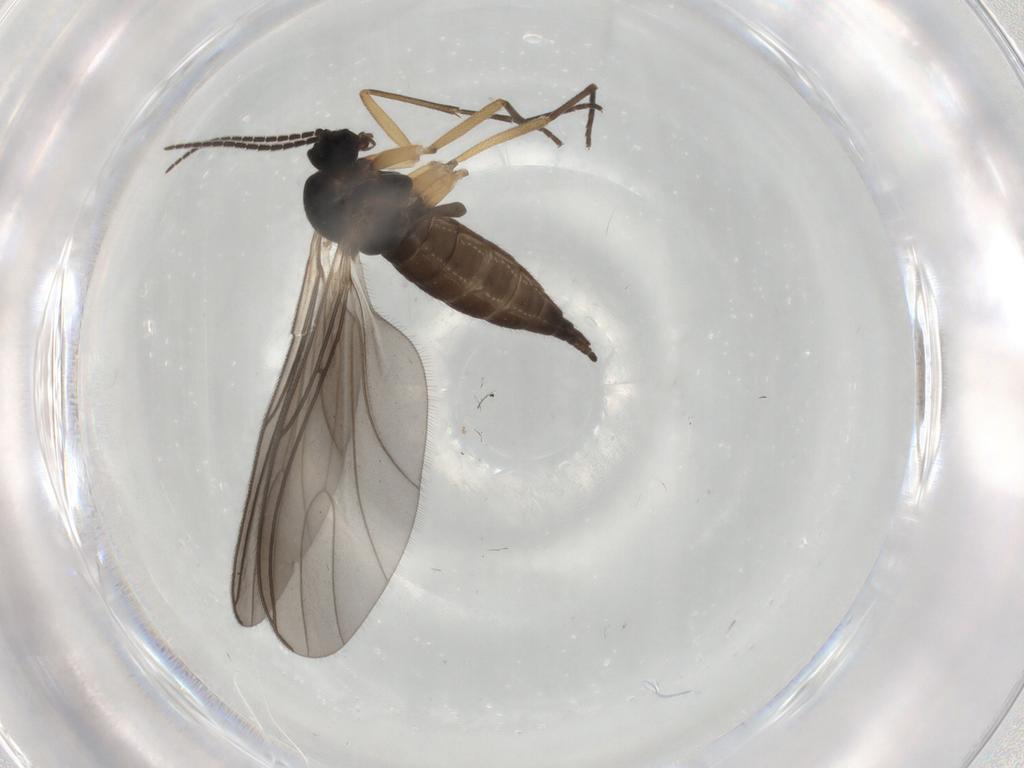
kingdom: Animalia
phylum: Arthropoda
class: Insecta
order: Diptera
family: Sciaridae
